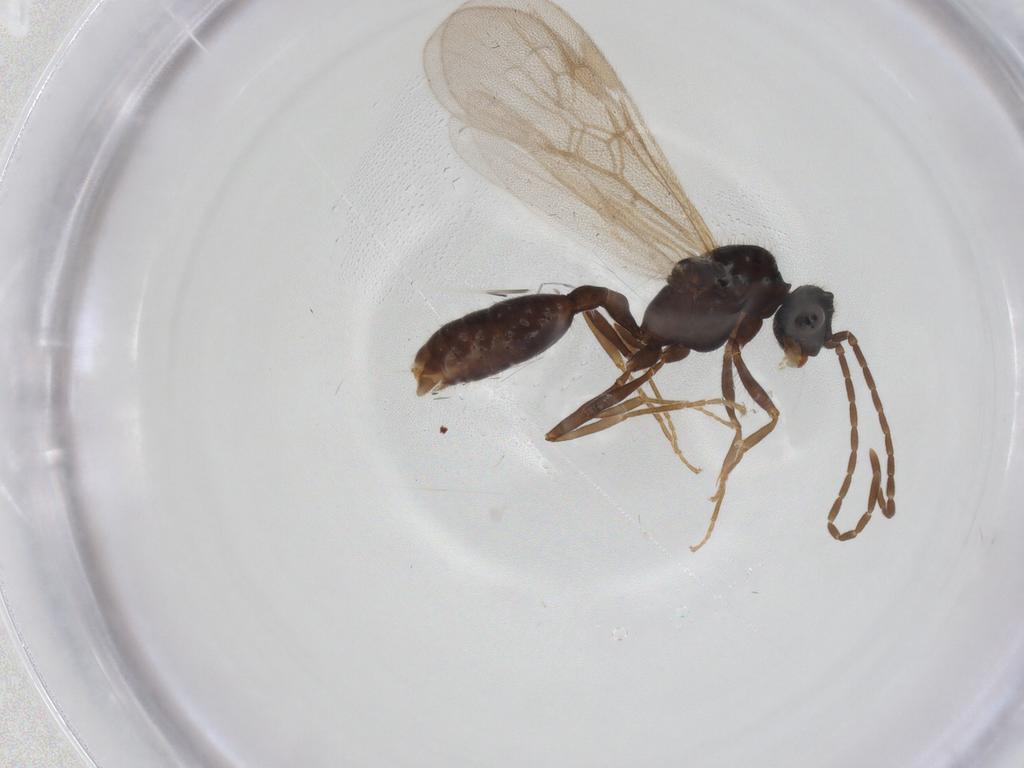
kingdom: Animalia
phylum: Arthropoda
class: Insecta
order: Hymenoptera
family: Formicidae
